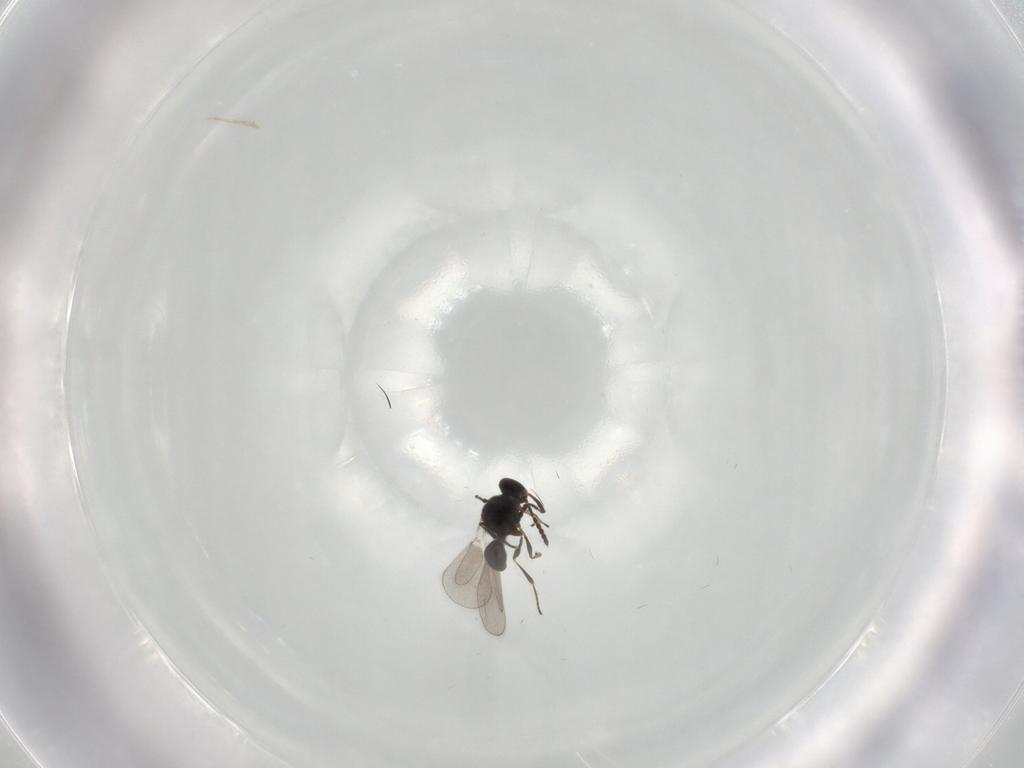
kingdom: Animalia
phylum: Arthropoda
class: Insecta
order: Hymenoptera
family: Platygastridae
